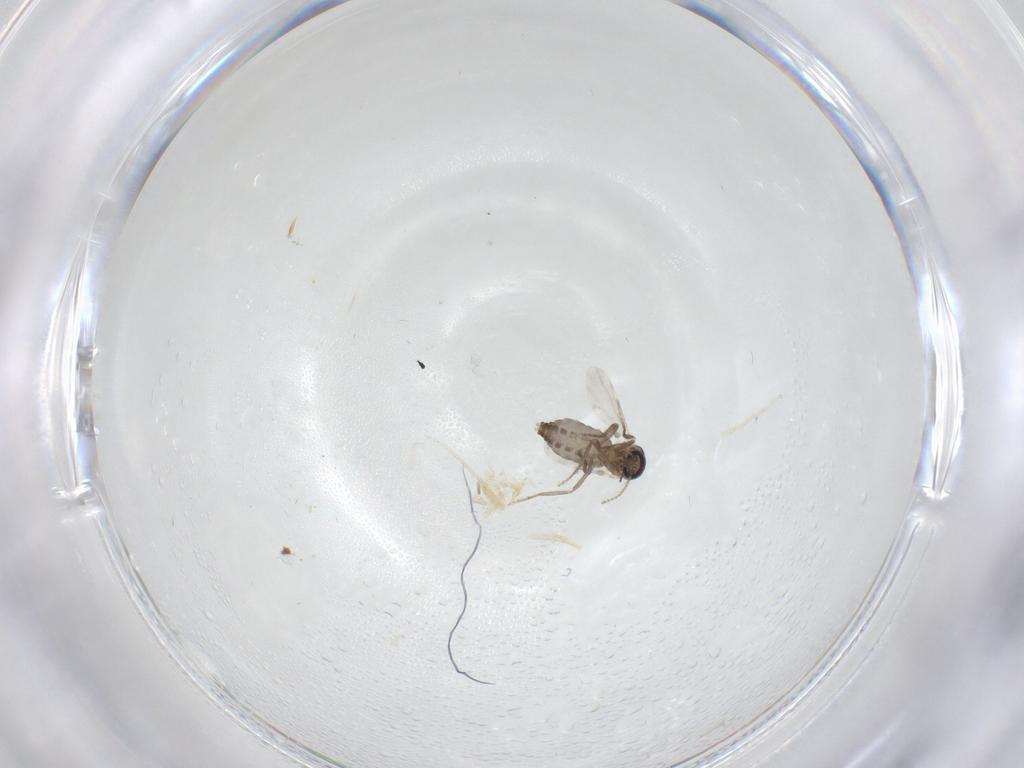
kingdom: Animalia
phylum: Arthropoda
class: Insecta
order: Diptera
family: Ceratopogonidae
